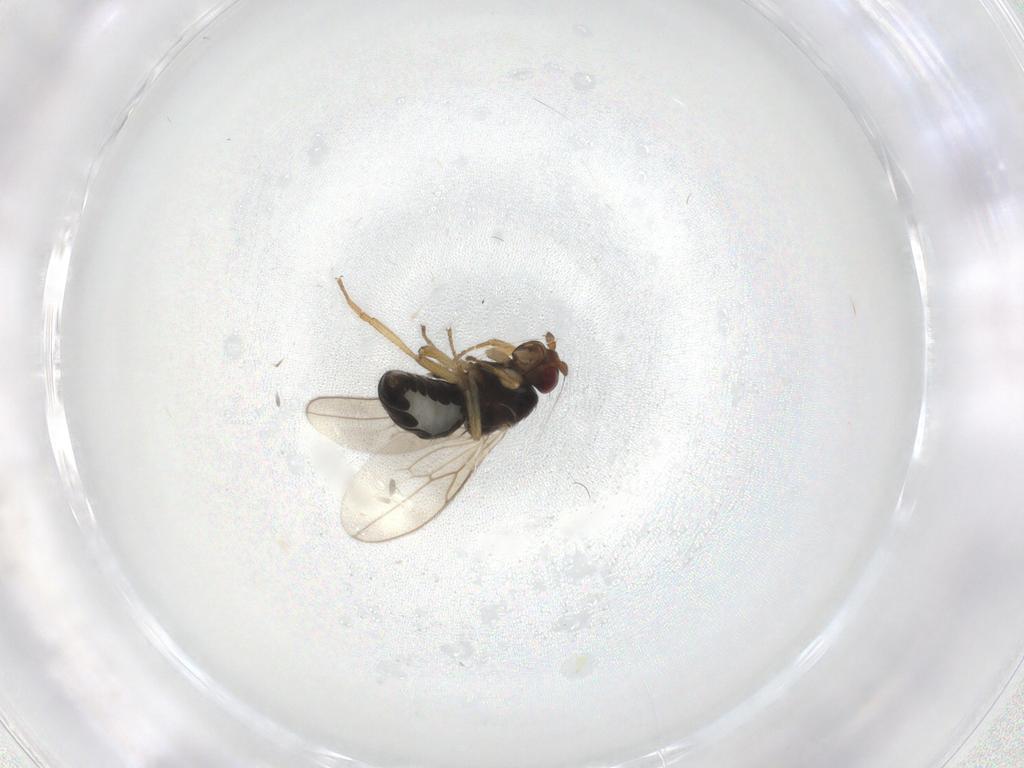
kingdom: Animalia
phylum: Arthropoda
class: Insecta
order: Diptera
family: Sphaeroceridae
